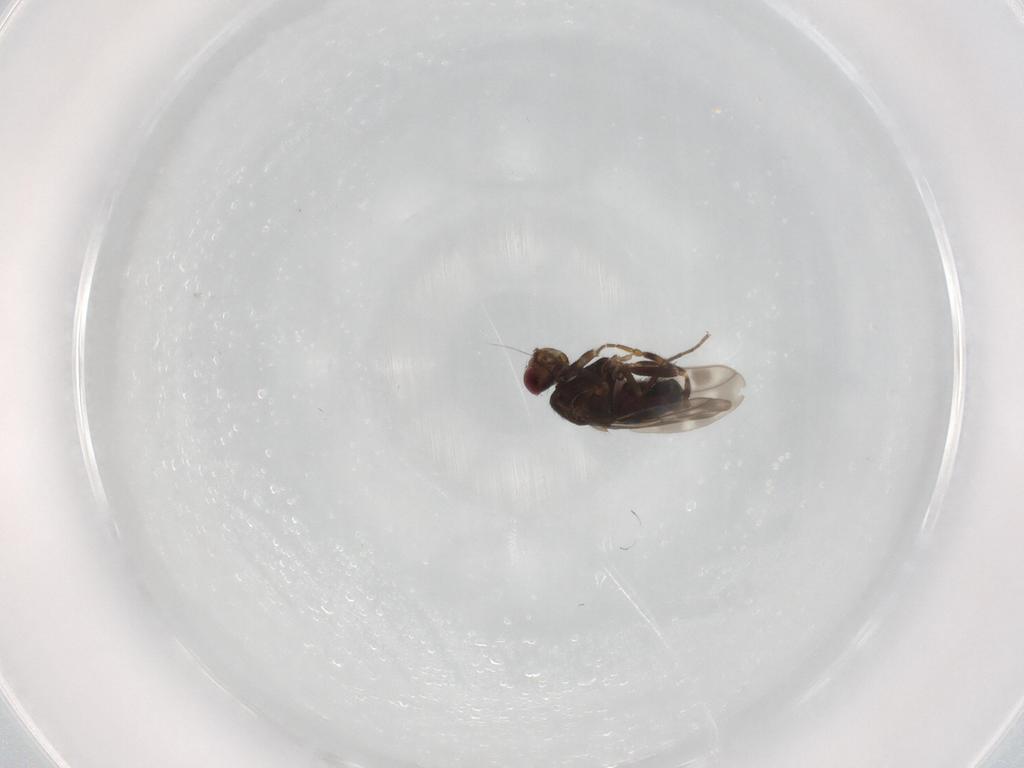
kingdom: Animalia
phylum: Arthropoda
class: Insecta
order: Diptera
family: Sphaeroceridae
